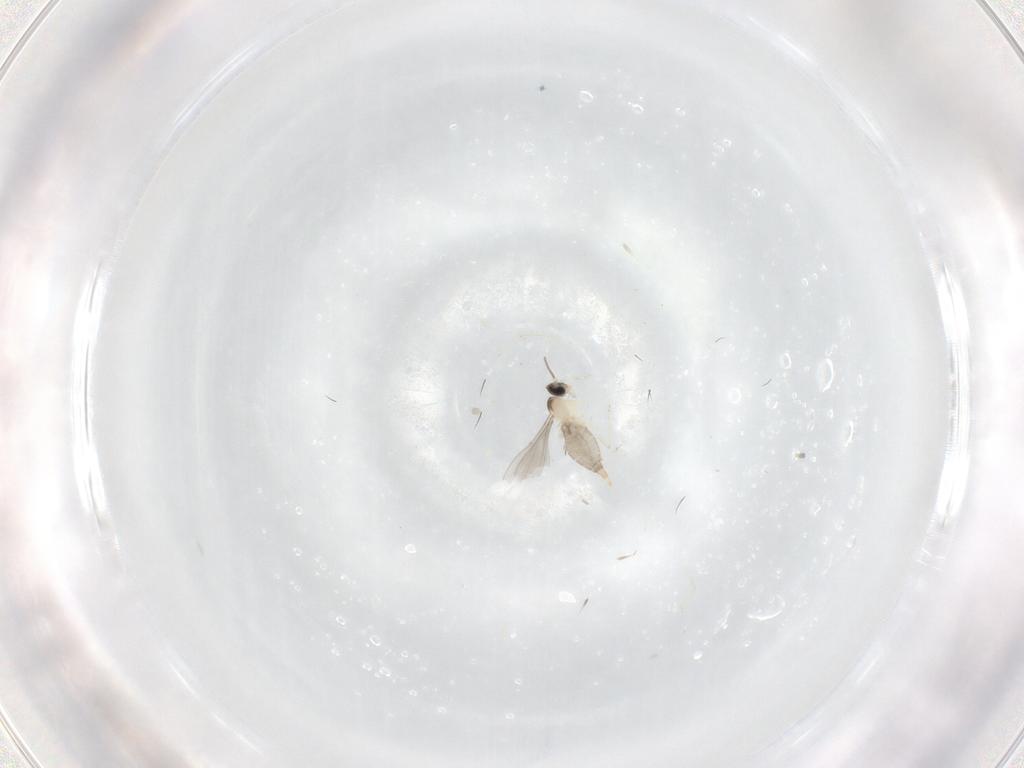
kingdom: Animalia
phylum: Arthropoda
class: Insecta
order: Diptera
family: Cecidomyiidae
